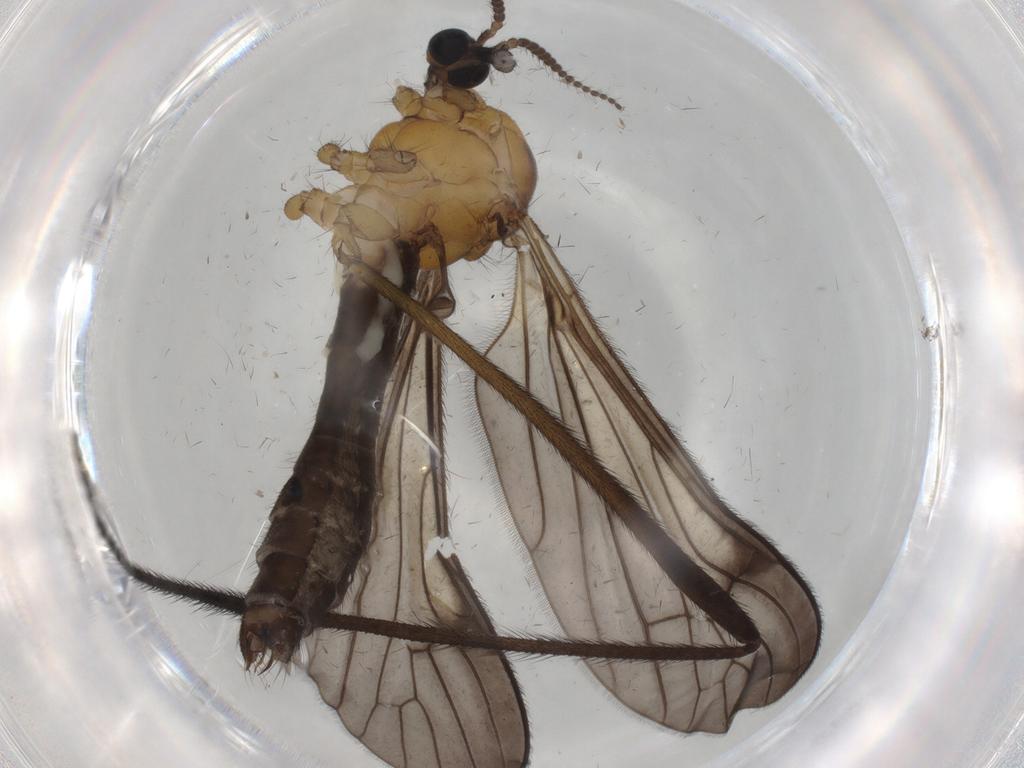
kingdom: Animalia
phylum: Arthropoda
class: Insecta
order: Diptera
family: Limoniidae
